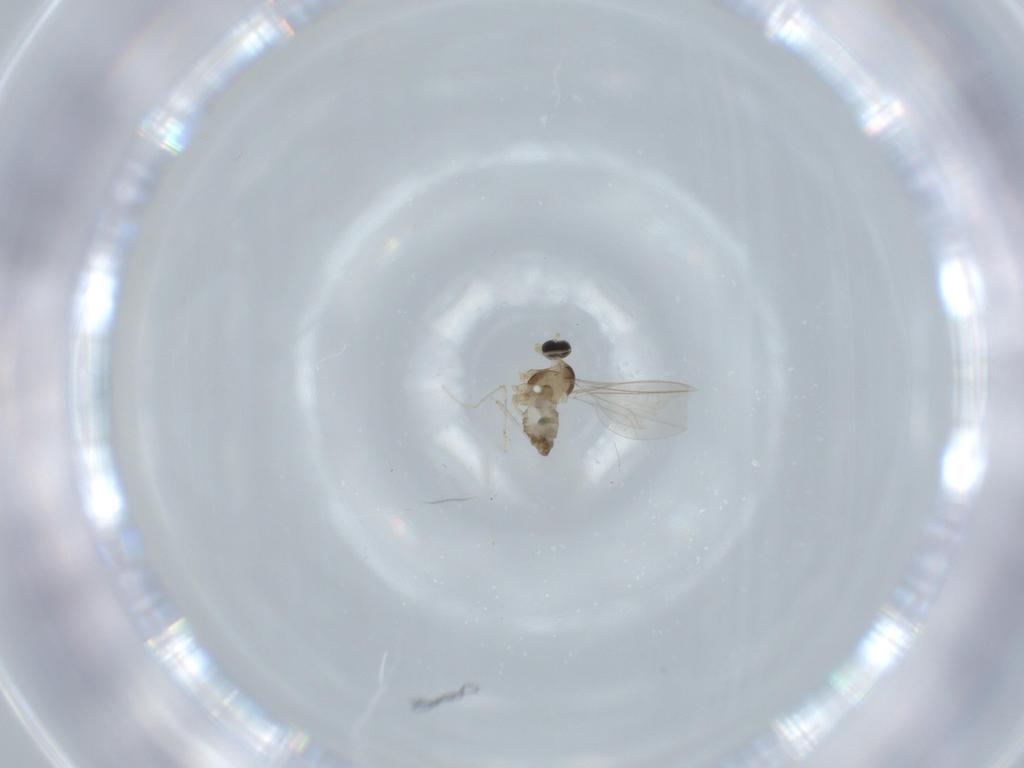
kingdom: Animalia
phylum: Arthropoda
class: Insecta
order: Diptera
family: Cecidomyiidae
